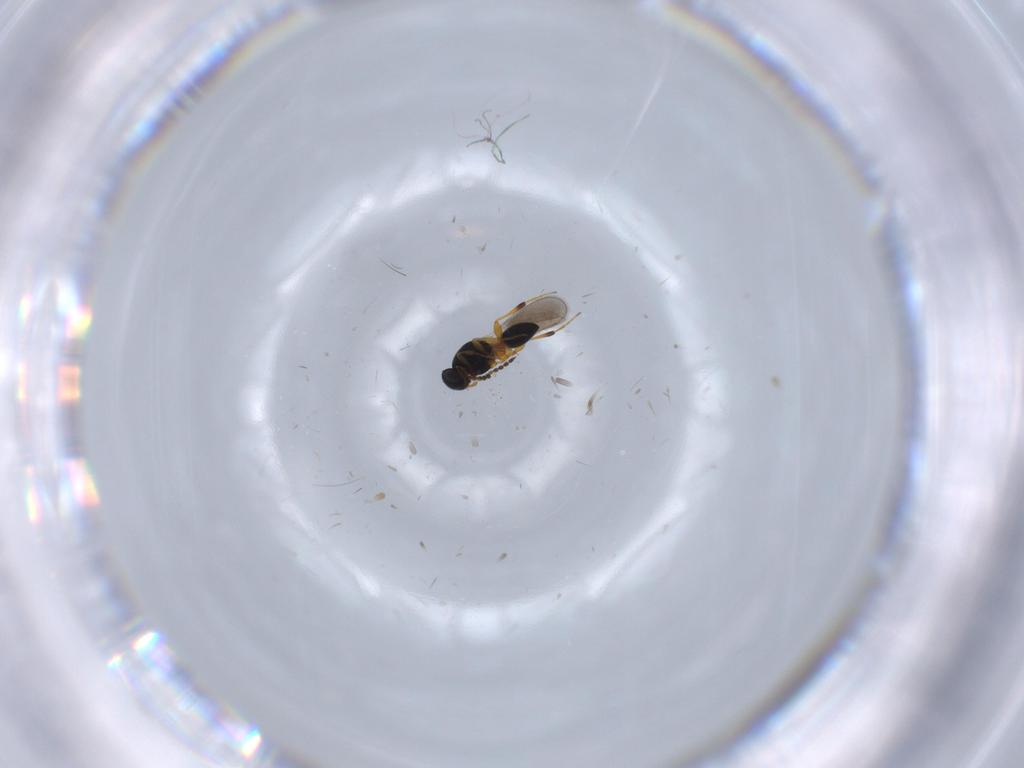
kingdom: Animalia
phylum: Arthropoda
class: Insecta
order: Hymenoptera
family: Platygastridae
